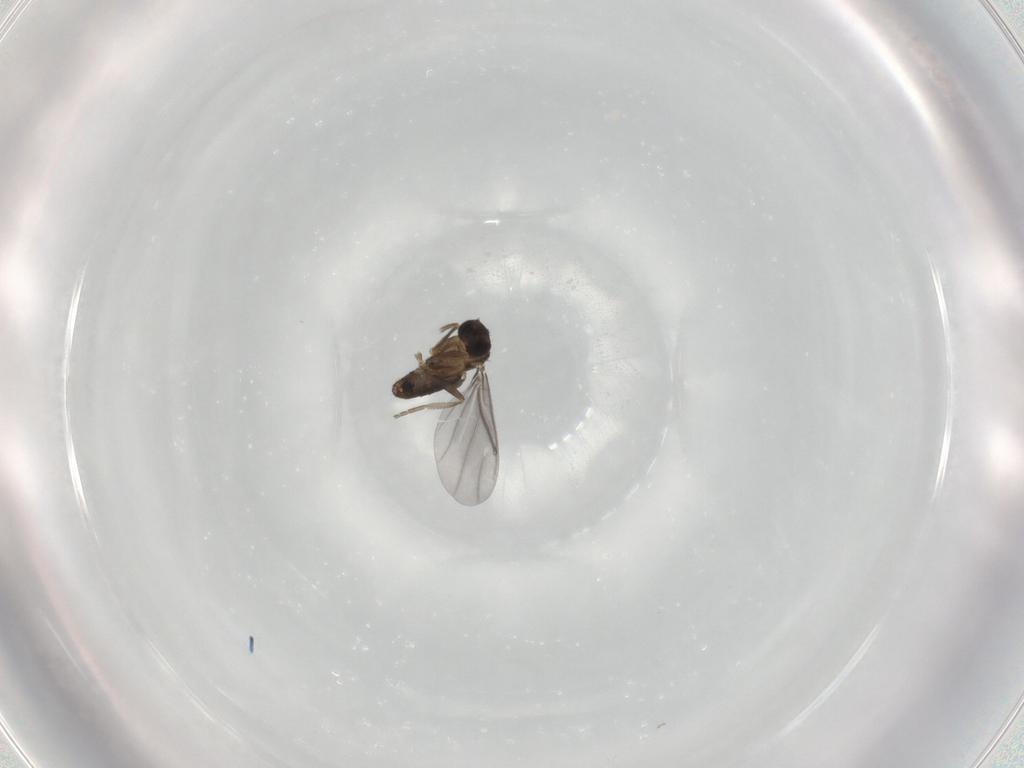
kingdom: Animalia
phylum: Arthropoda
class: Insecta
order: Diptera
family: Phoridae
